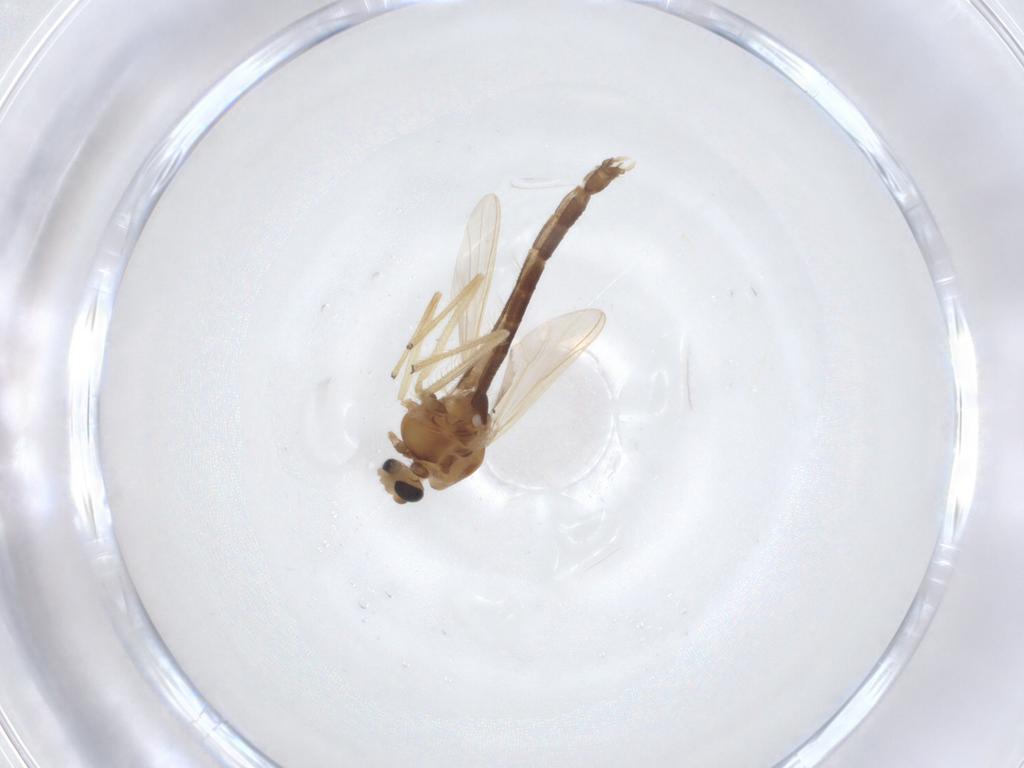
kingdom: Animalia
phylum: Arthropoda
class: Insecta
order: Diptera
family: Chironomidae
